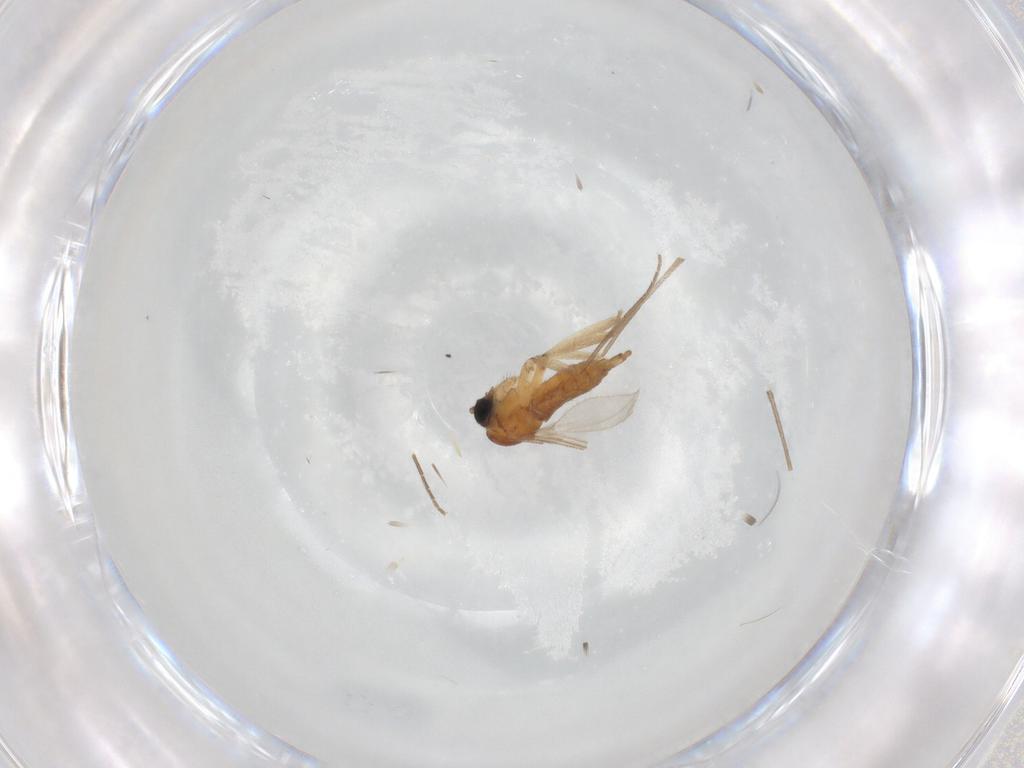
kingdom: Animalia
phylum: Arthropoda
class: Insecta
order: Diptera
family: Sciaridae
